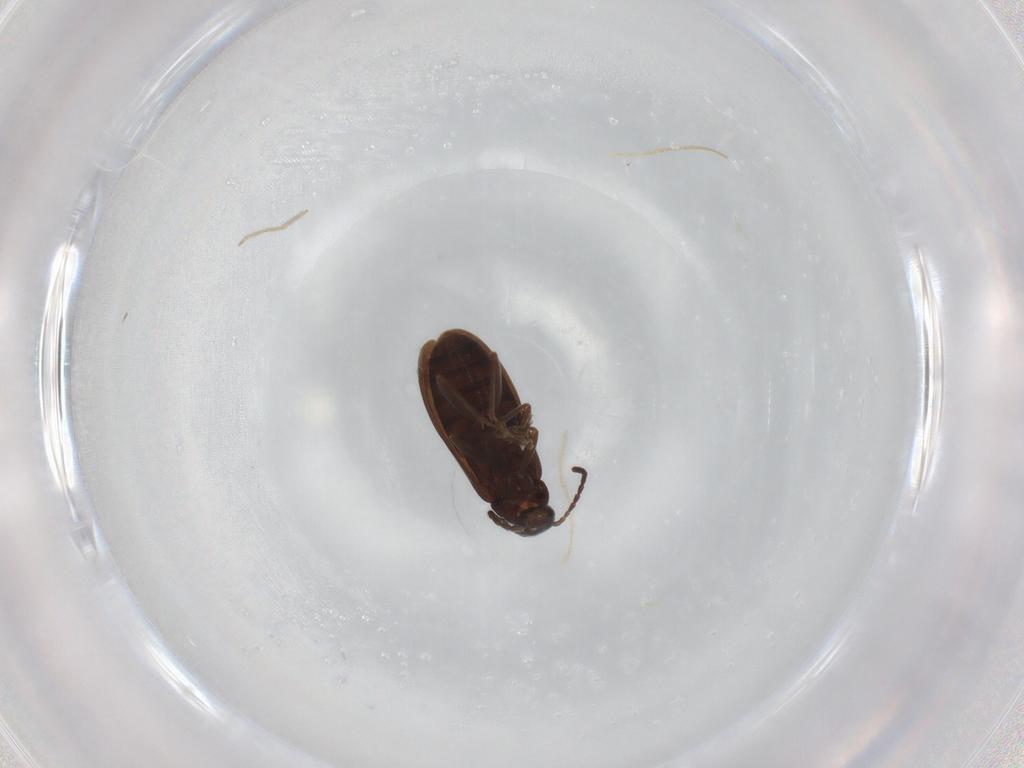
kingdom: Animalia
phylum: Arthropoda
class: Insecta
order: Coleoptera
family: Scraptiidae
